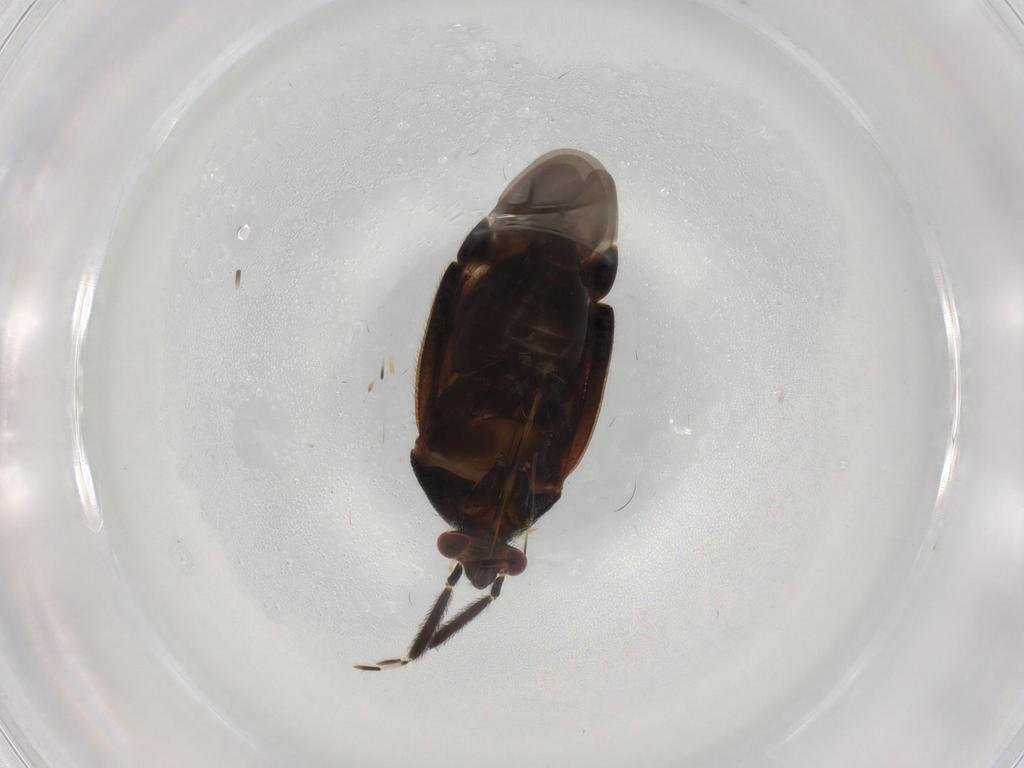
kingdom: Animalia
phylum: Arthropoda
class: Insecta
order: Hemiptera
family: Miridae
